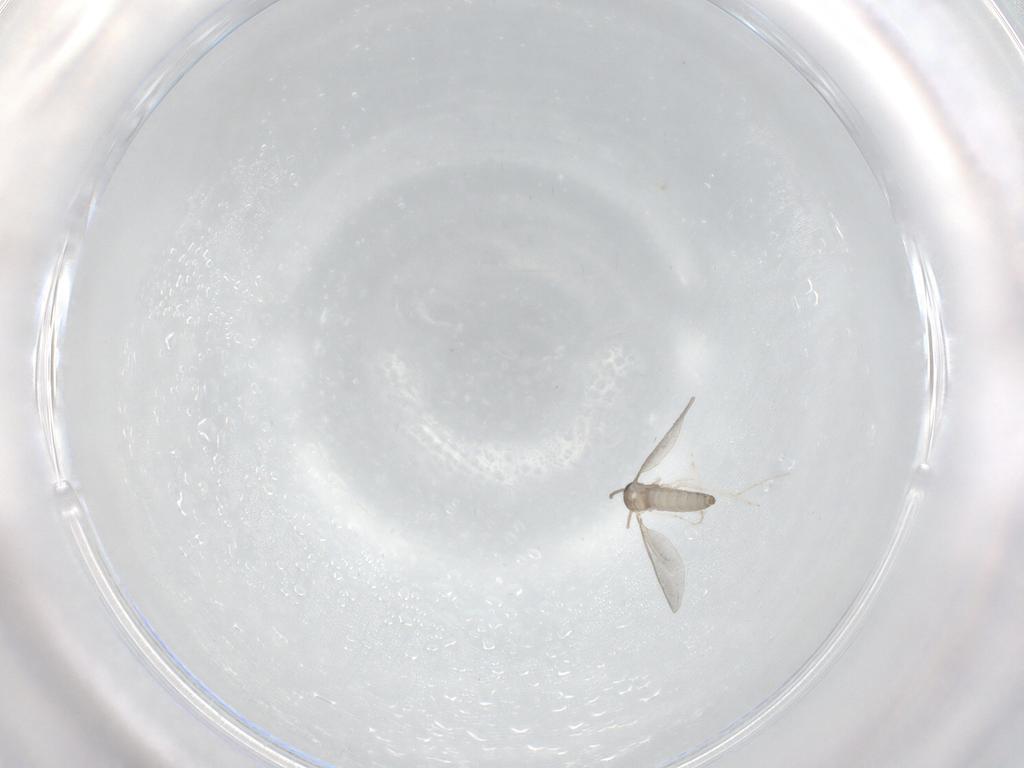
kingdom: Animalia
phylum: Arthropoda
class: Insecta
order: Diptera
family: Cecidomyiidae
